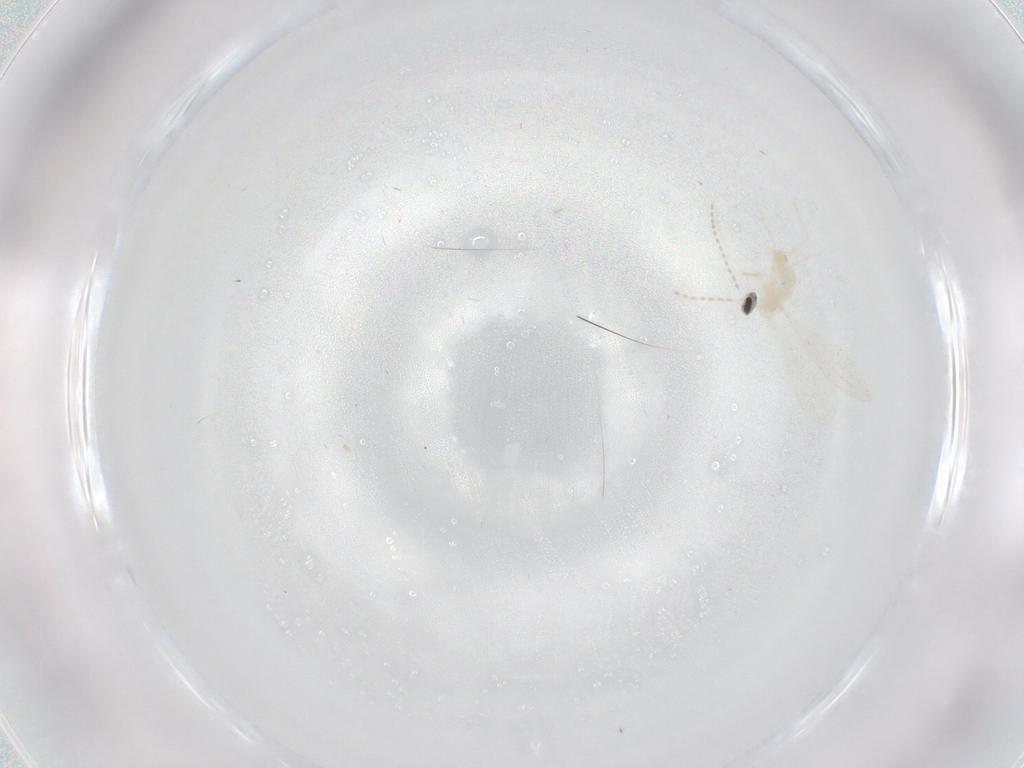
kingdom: Animalia
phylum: Arthropoda
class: Insecta
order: Diptera
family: Cecidomyiidae
